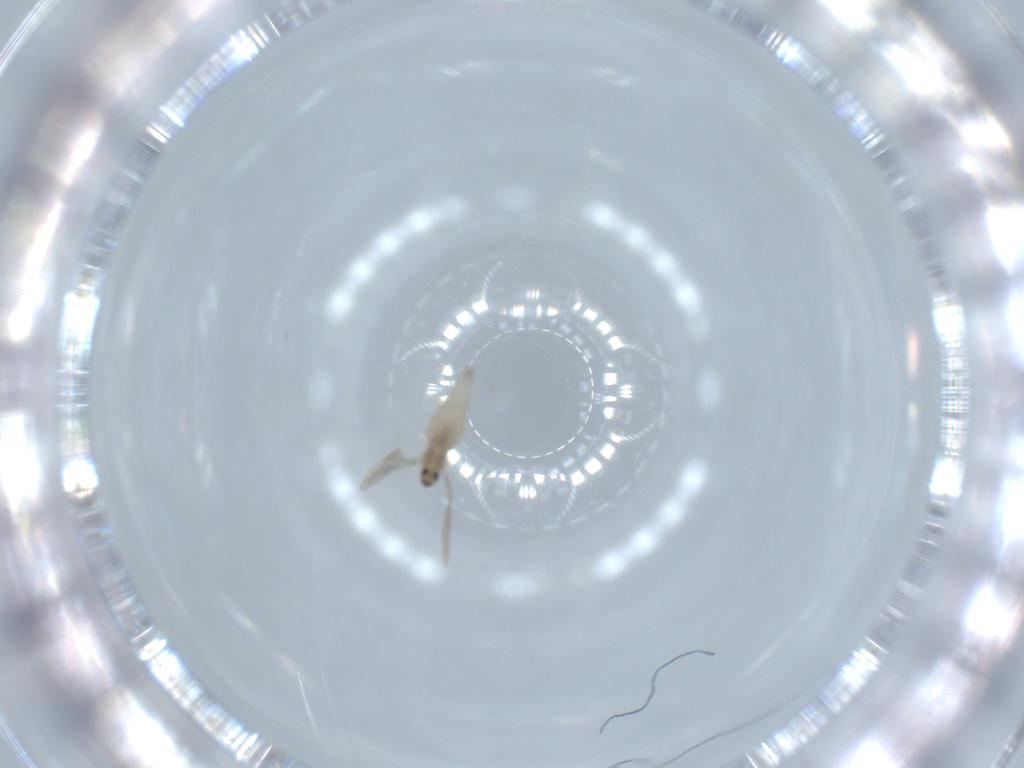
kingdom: Animalia
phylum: Arthropoda
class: Insecta
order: Diptera
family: Cecidomyiidae
